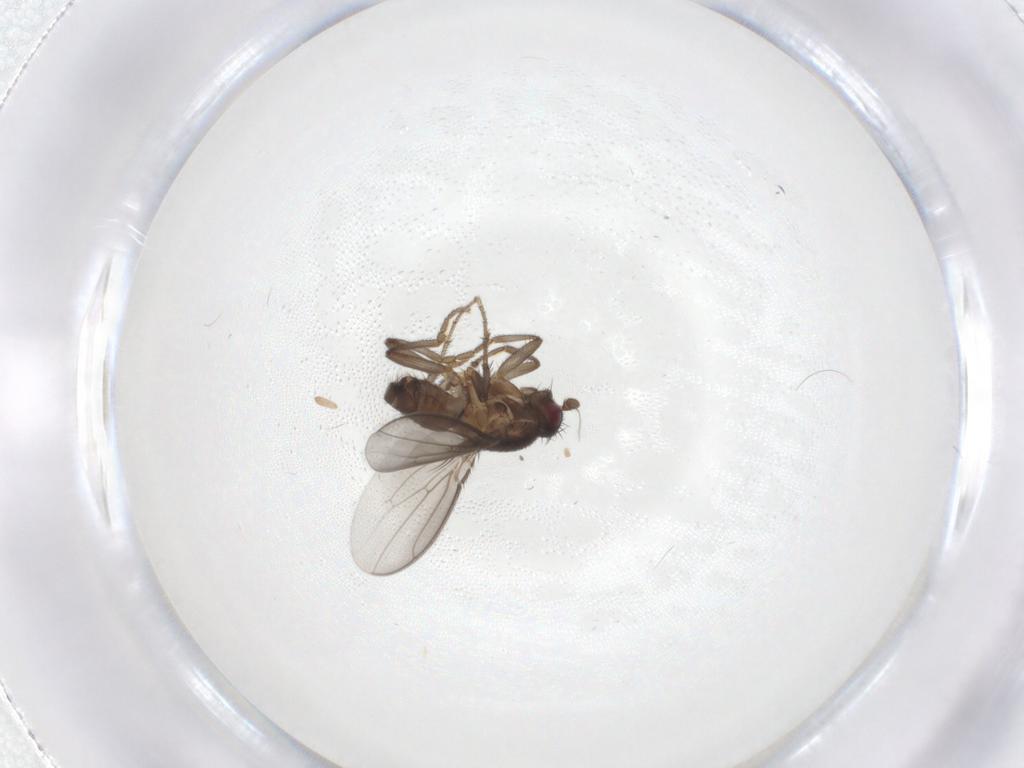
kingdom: Animalia
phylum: Arthropoda
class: Insecta
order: Diptera
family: Sphaeroceridae
